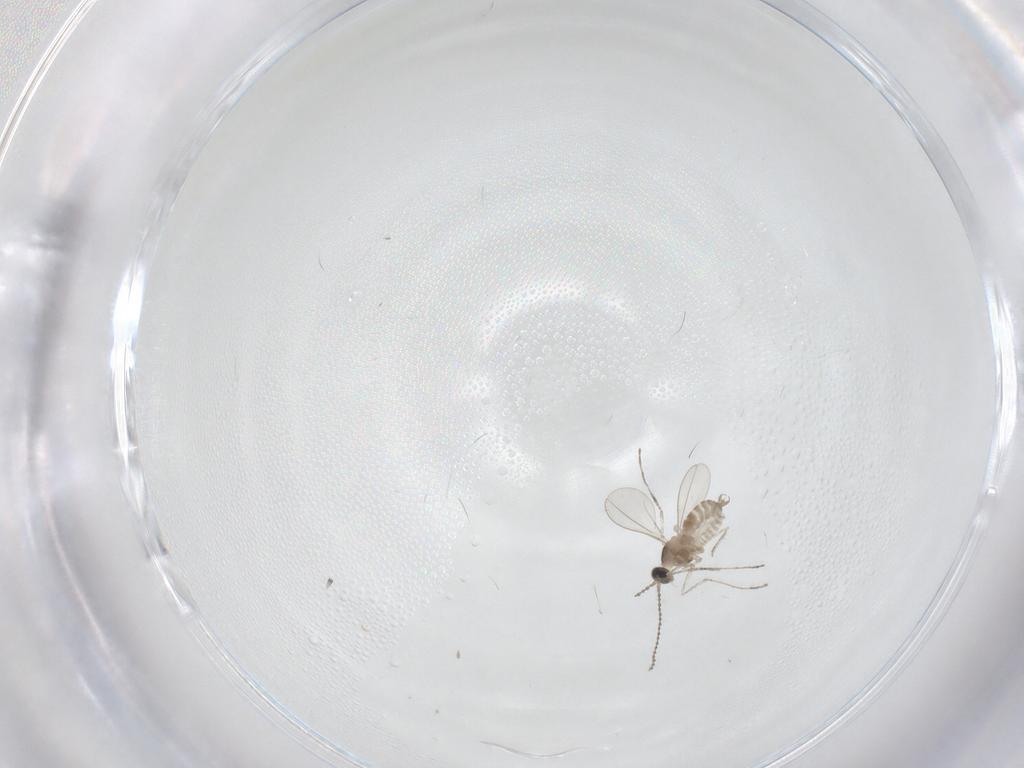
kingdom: Animalia
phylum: Arthropoda
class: Insecta
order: Diptera
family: Cecidomyiidae
